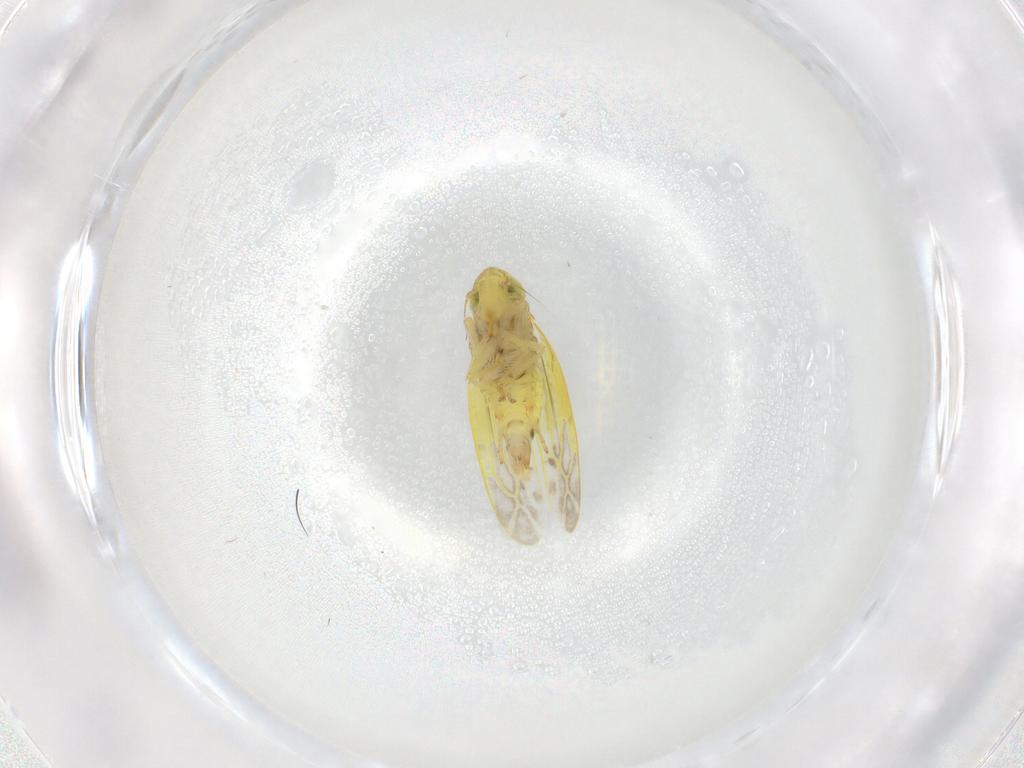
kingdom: Animalia
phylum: Arthropoda
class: Insecta
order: Hemiptera
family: Cicadellidae
